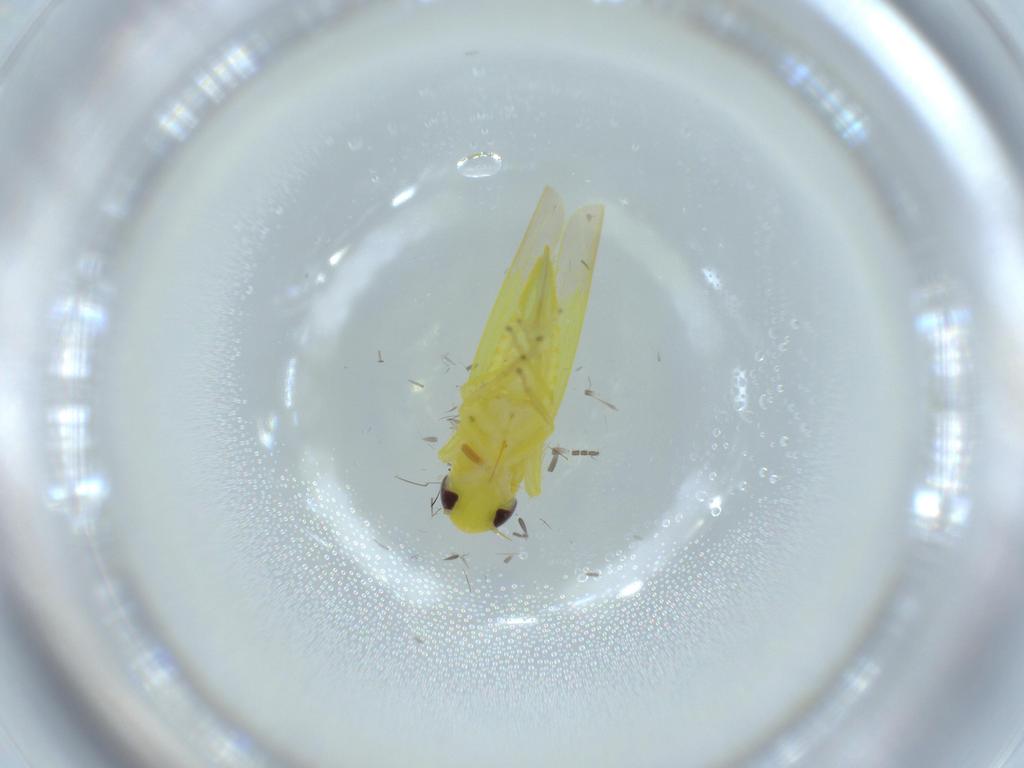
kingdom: Animalia
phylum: Arthropoda
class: Insecta
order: Hemiptera
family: Cicadellidae
